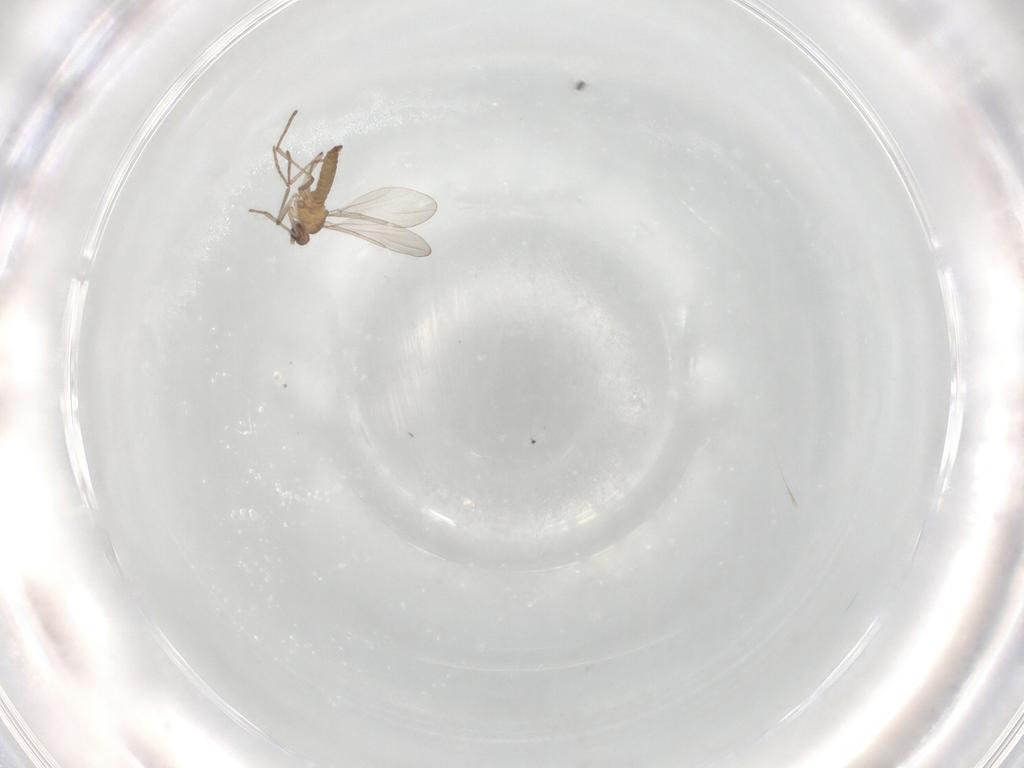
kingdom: Animalia
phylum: Arthropoda
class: Insecta
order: Diptera
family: Cecidomyiidae
